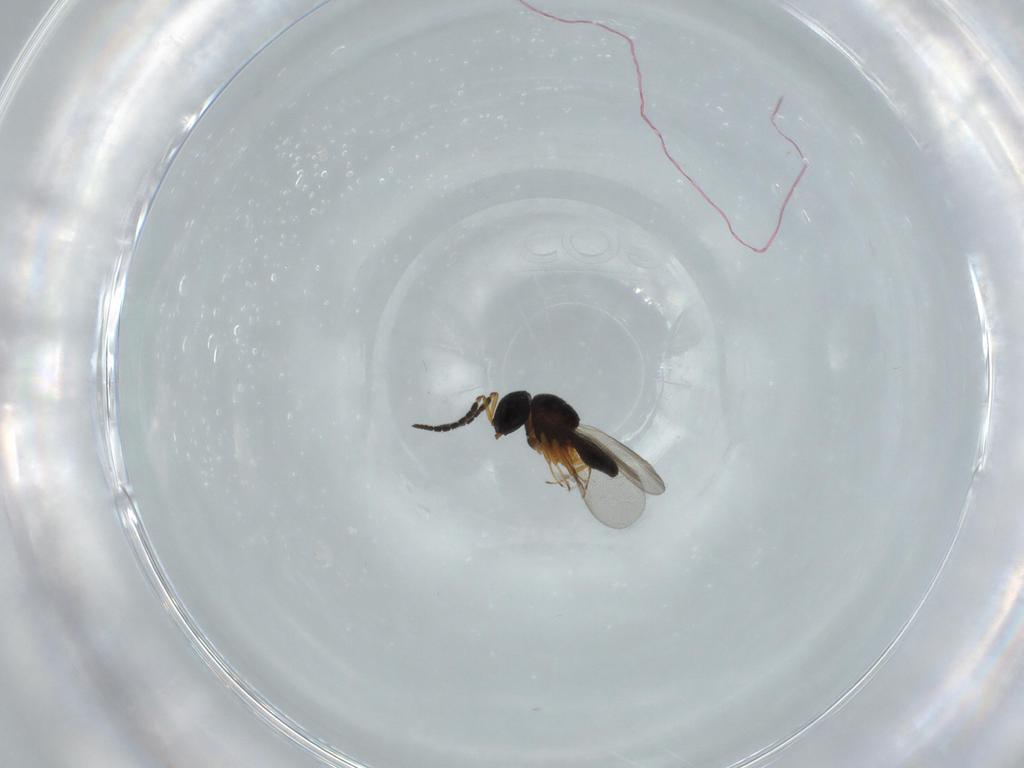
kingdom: Animalia
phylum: Arthropoda
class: Insecta
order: Hymenoptera
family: Scelionidae
